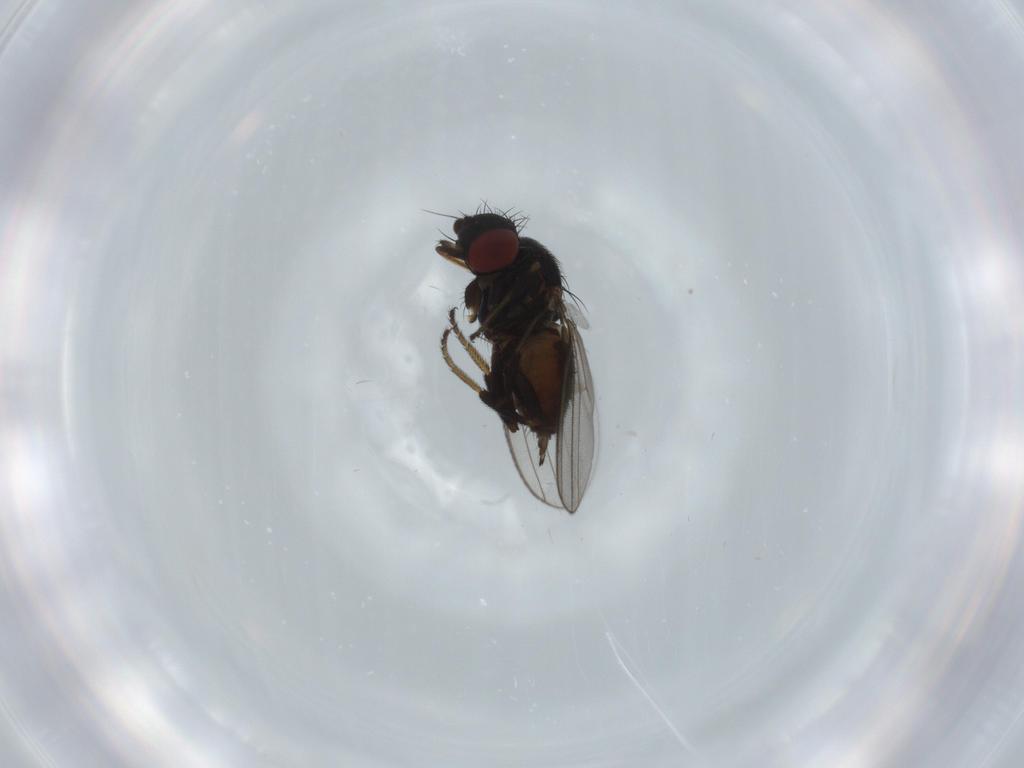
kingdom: Animalia
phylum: Arthropoda
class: Insecta
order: Diptera
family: Milichiidae
